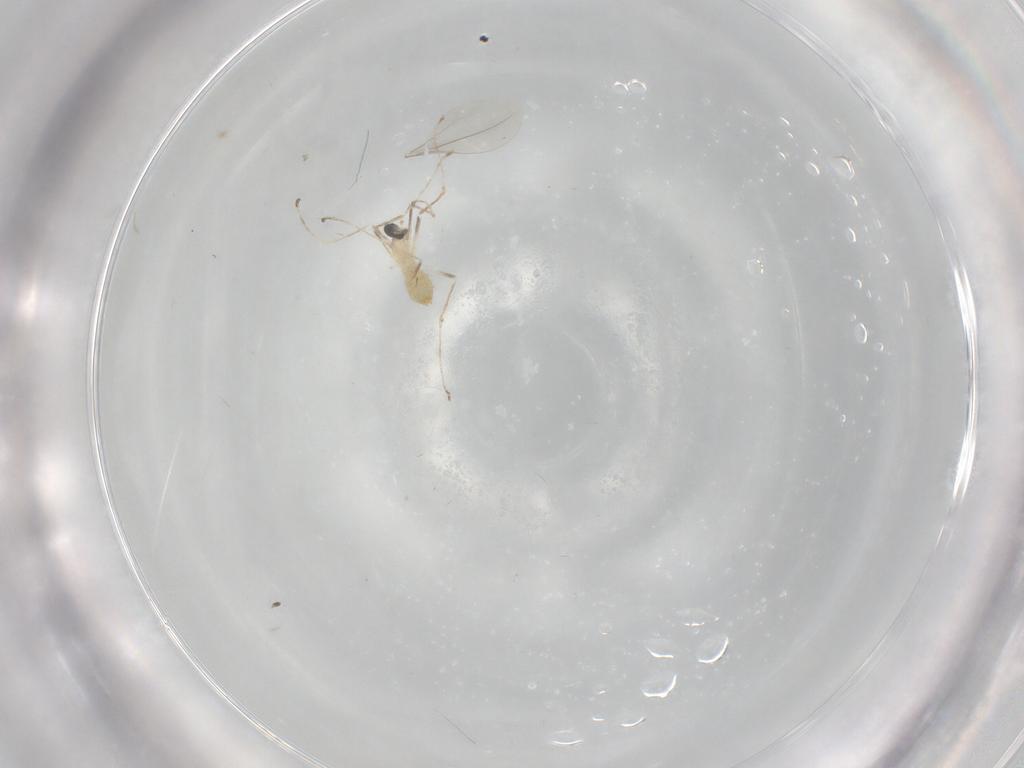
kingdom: Animalia
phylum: Arthropoda
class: Insecta
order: Diptera
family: Cecidomyiidae
